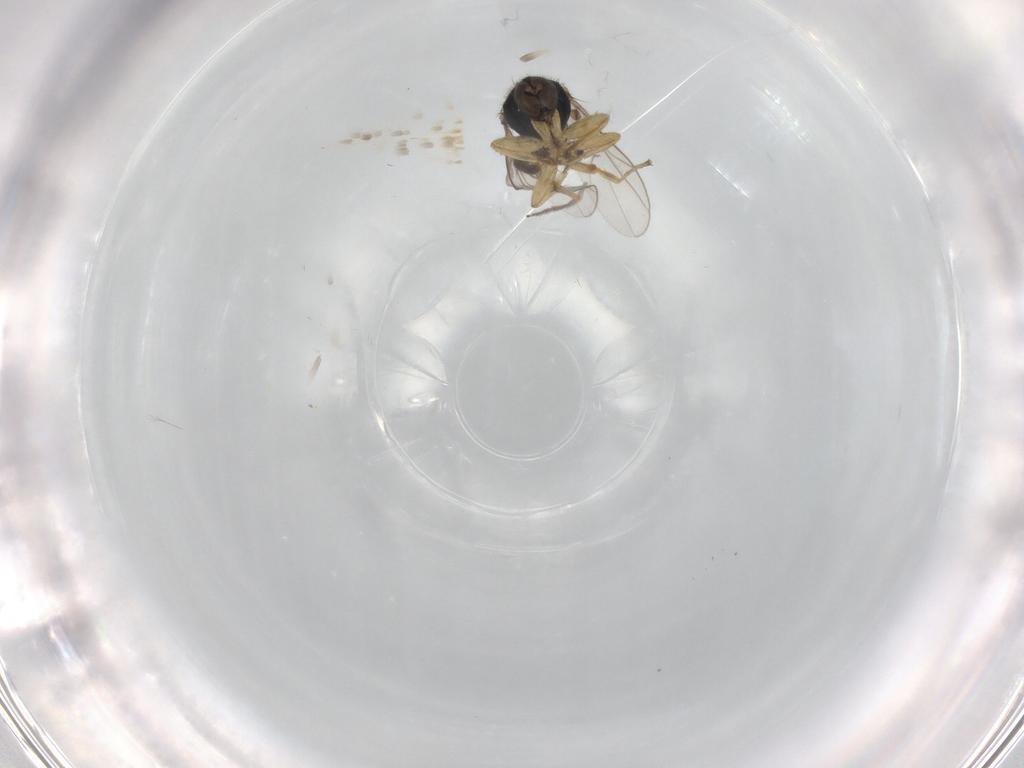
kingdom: Animalia
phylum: Arthropoda
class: Insecta
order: Diptera
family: Hybotidae
